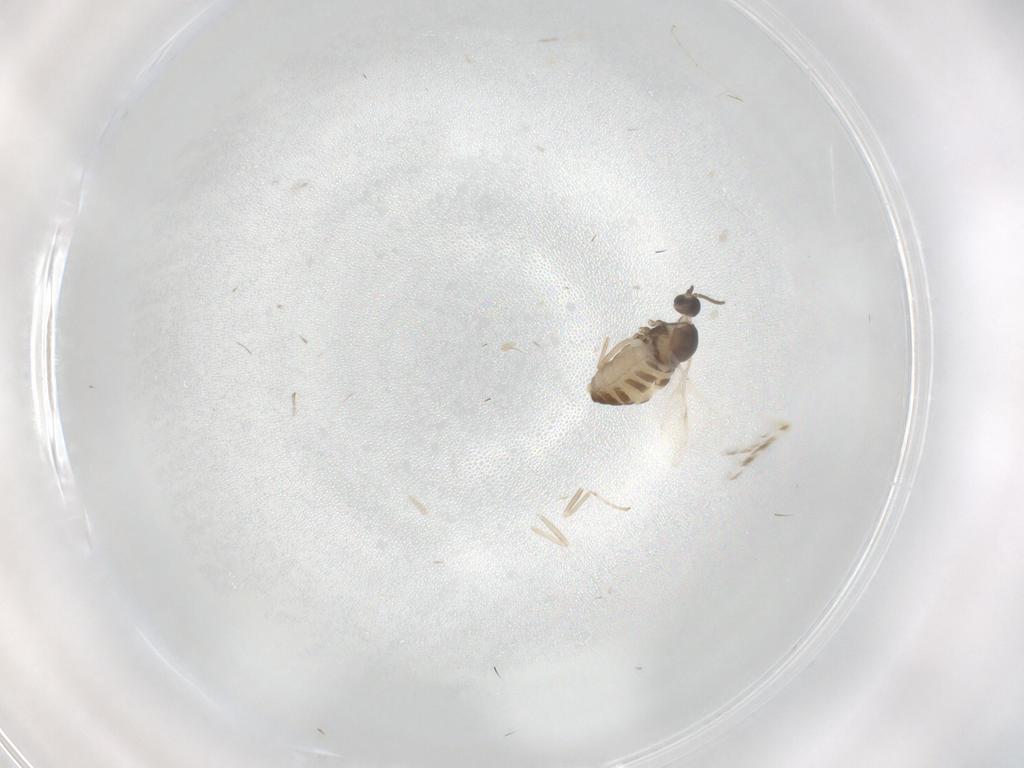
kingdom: Animalia
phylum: Arthropoda
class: Insecta
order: Diptera
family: Cecidomyiidae
